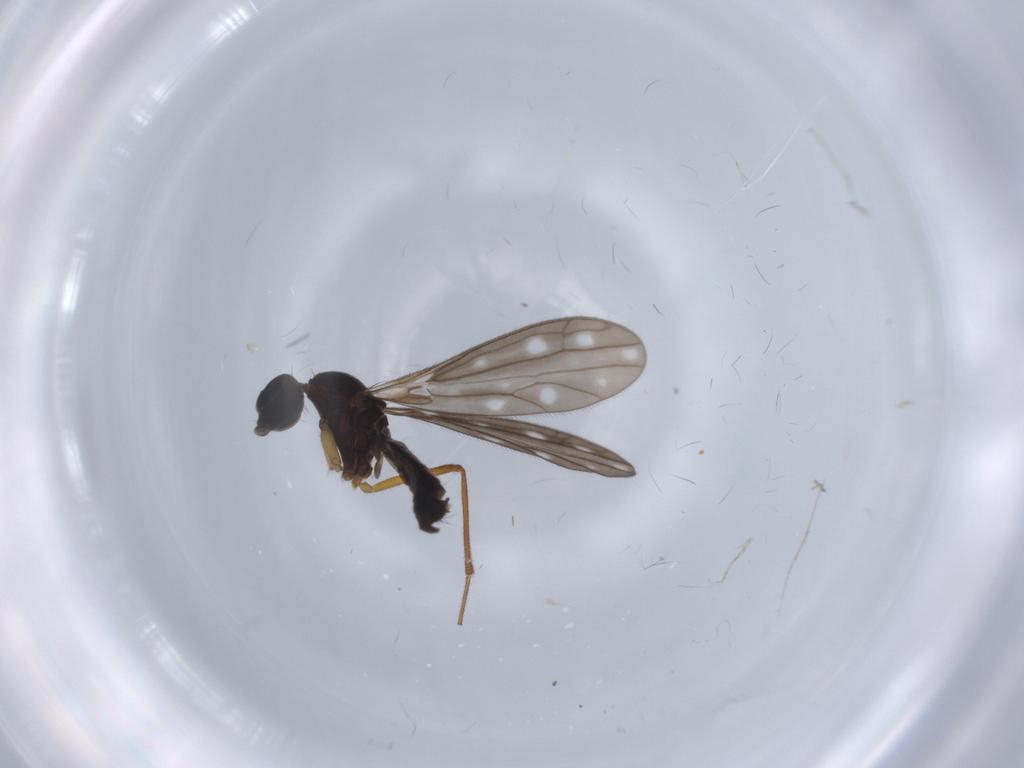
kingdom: Animalia
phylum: Arthropoda
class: Insecta
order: Diptera
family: Empididae
